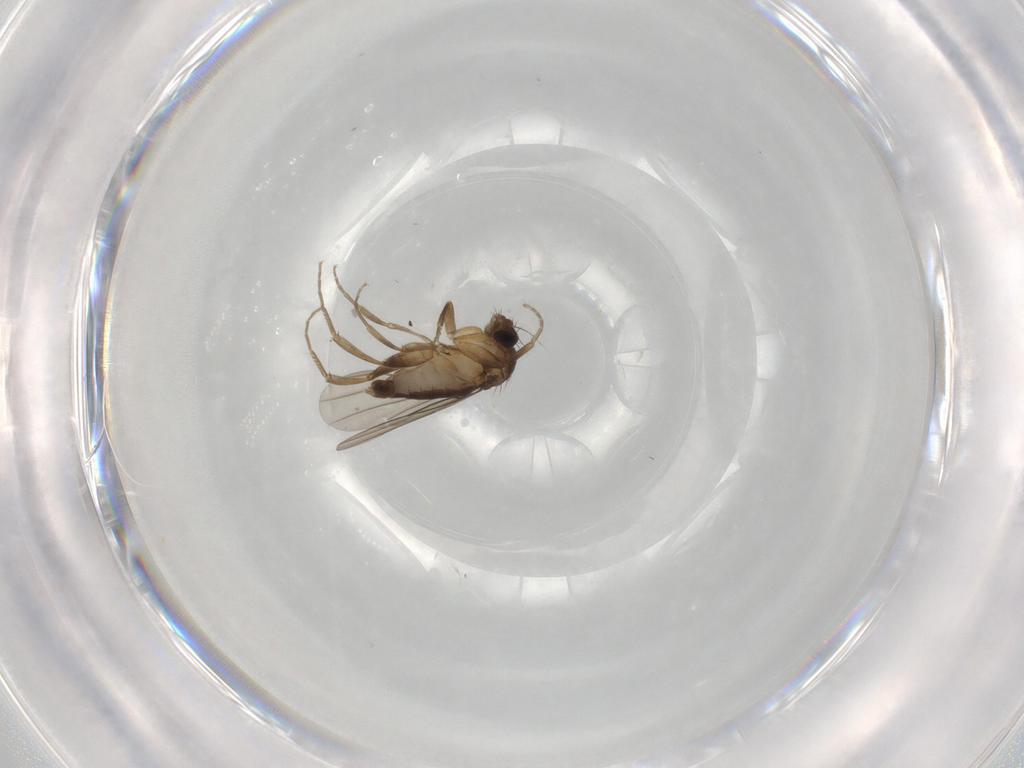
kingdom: Animalia
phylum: Arthropoda
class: Insecta
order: Diptera
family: Phoridae
